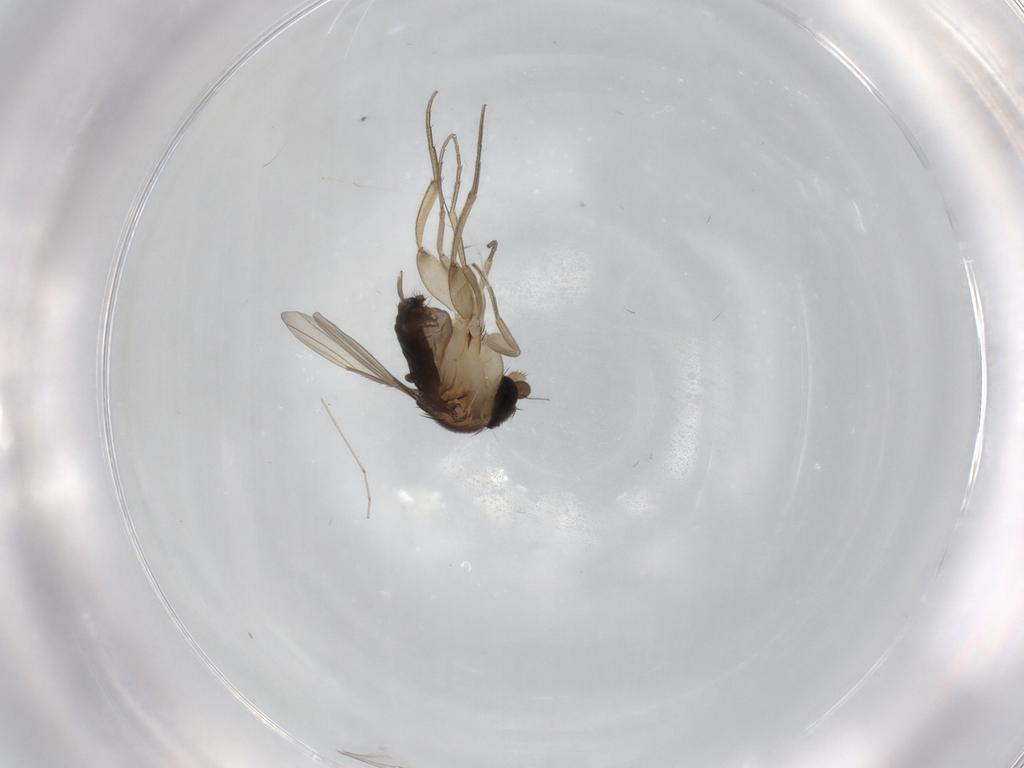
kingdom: Animalia
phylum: Arthropoda
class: Insecta
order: Diptera
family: Phoridae
